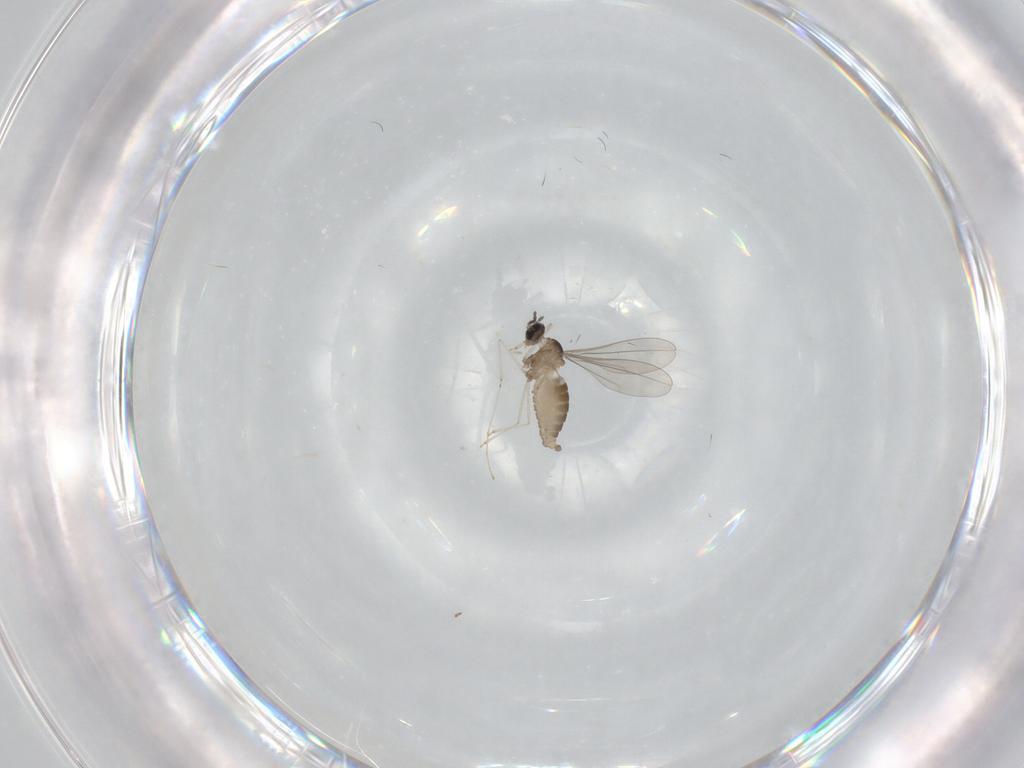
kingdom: Animalia
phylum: Arthropoda
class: Insecta
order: Diptera
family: Cecidomyiidae
